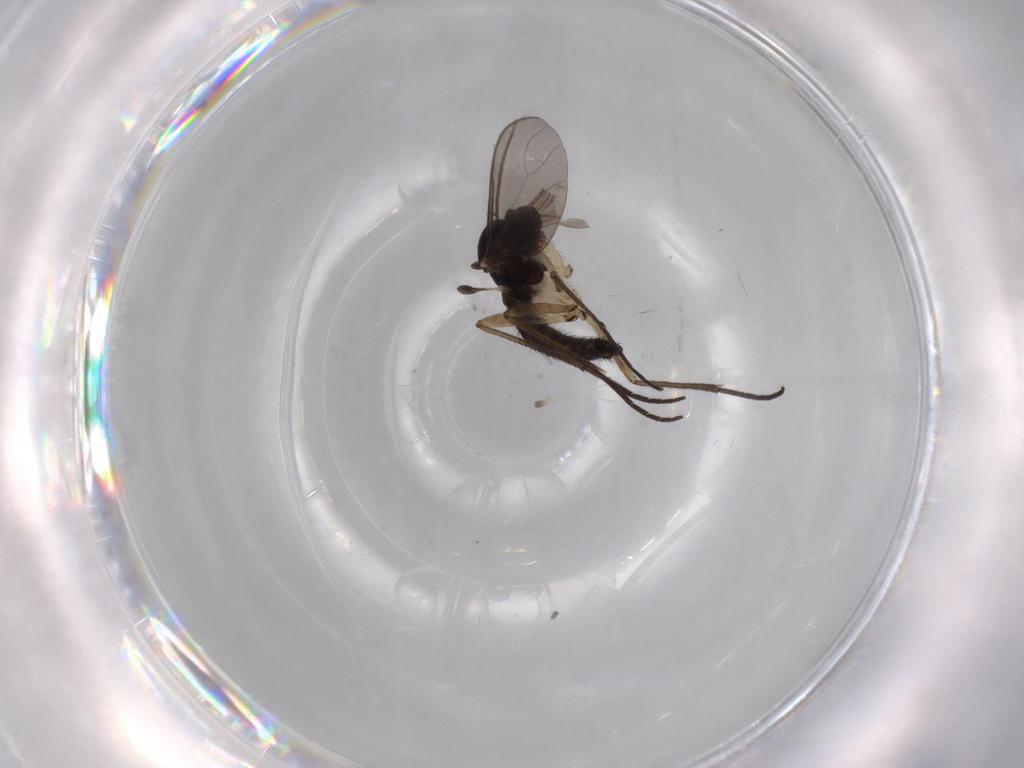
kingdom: Animalia
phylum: Arthropoda
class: Insecta
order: Diptera
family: Sciaridae
